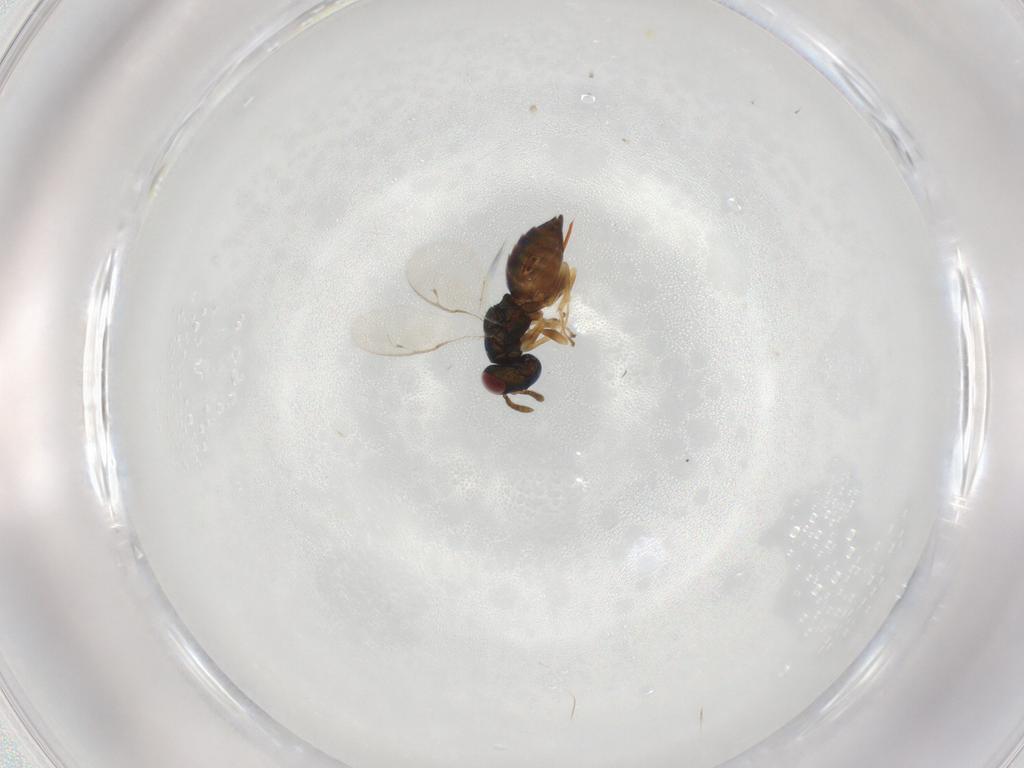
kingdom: Animalia
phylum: Arthropoda
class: Insecta
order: Hymenoptera
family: Pteromalidae
